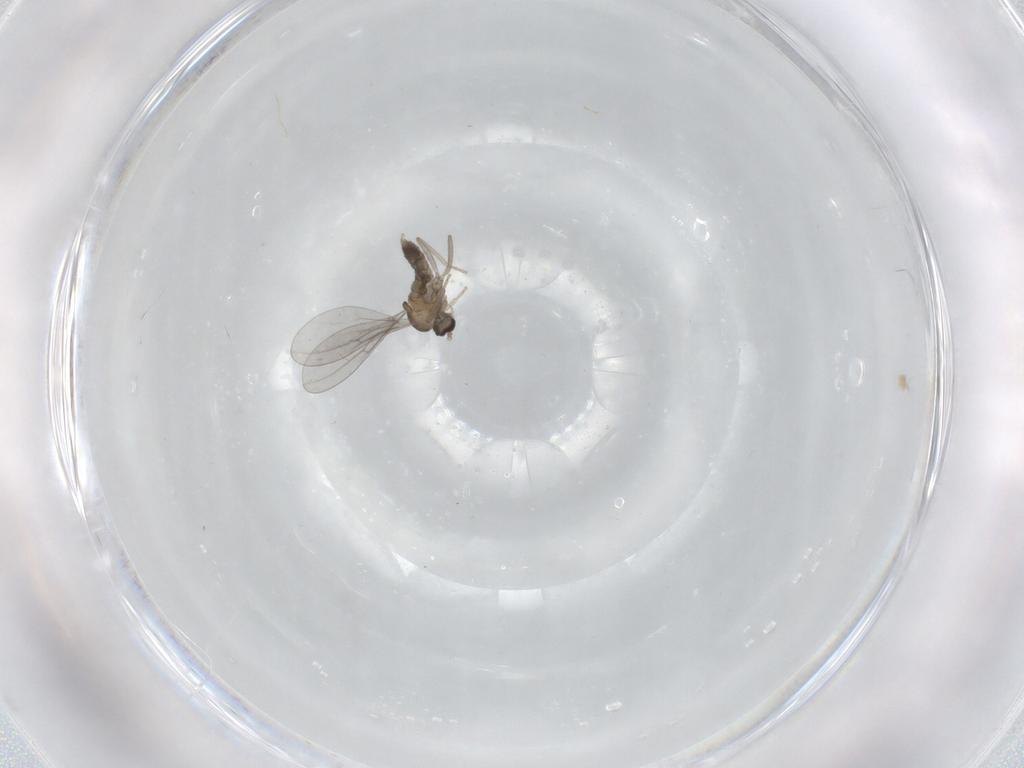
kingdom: Animalia
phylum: Arthropoda
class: Insecta
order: Diptera
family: Cecidomyiidae
